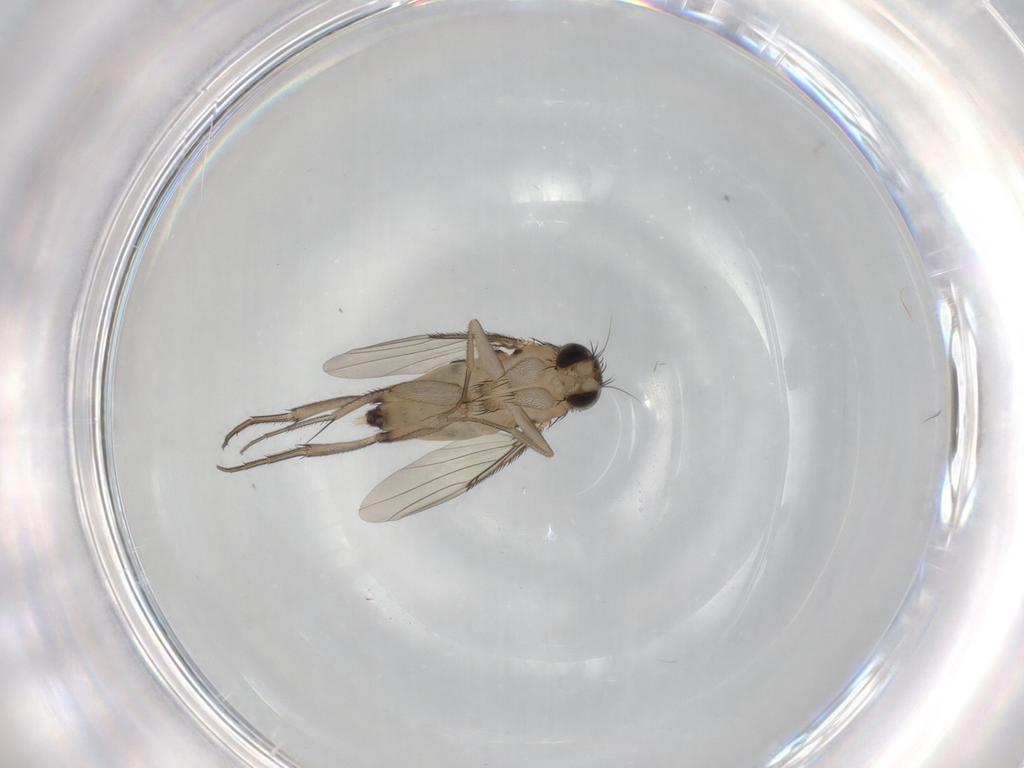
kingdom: Animalia
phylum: Arthropoda
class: Insecta
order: Diptera
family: Phoridae
